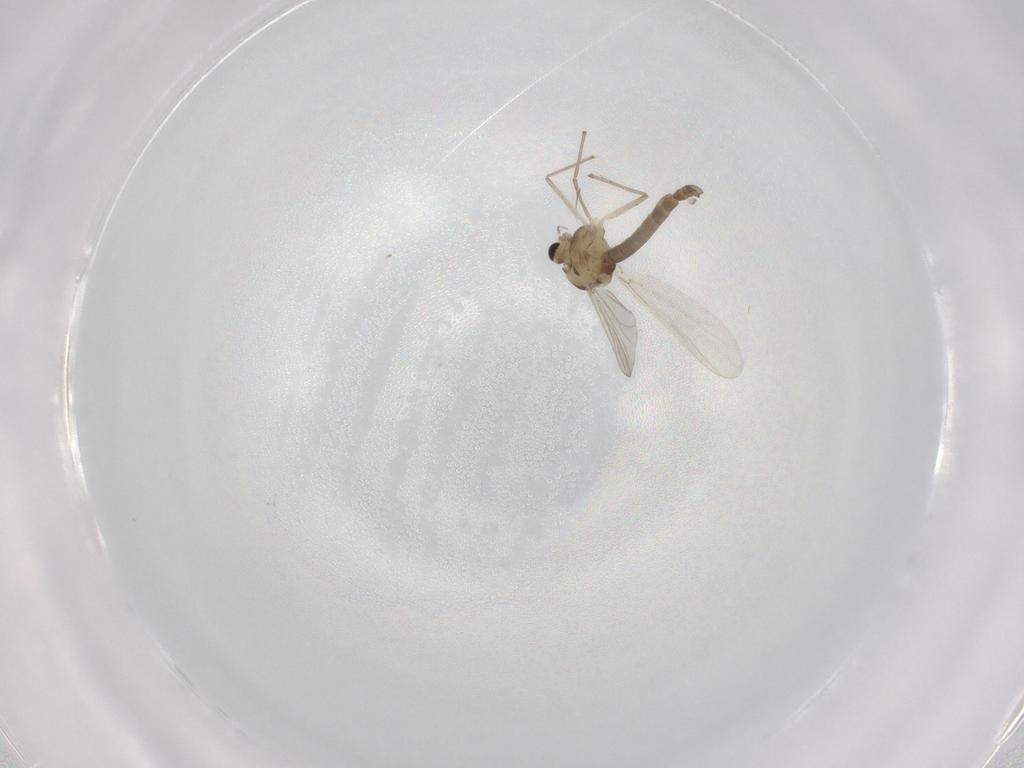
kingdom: Animalia
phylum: Arthropoda
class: Insecta
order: Diptera
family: Chironomidae
